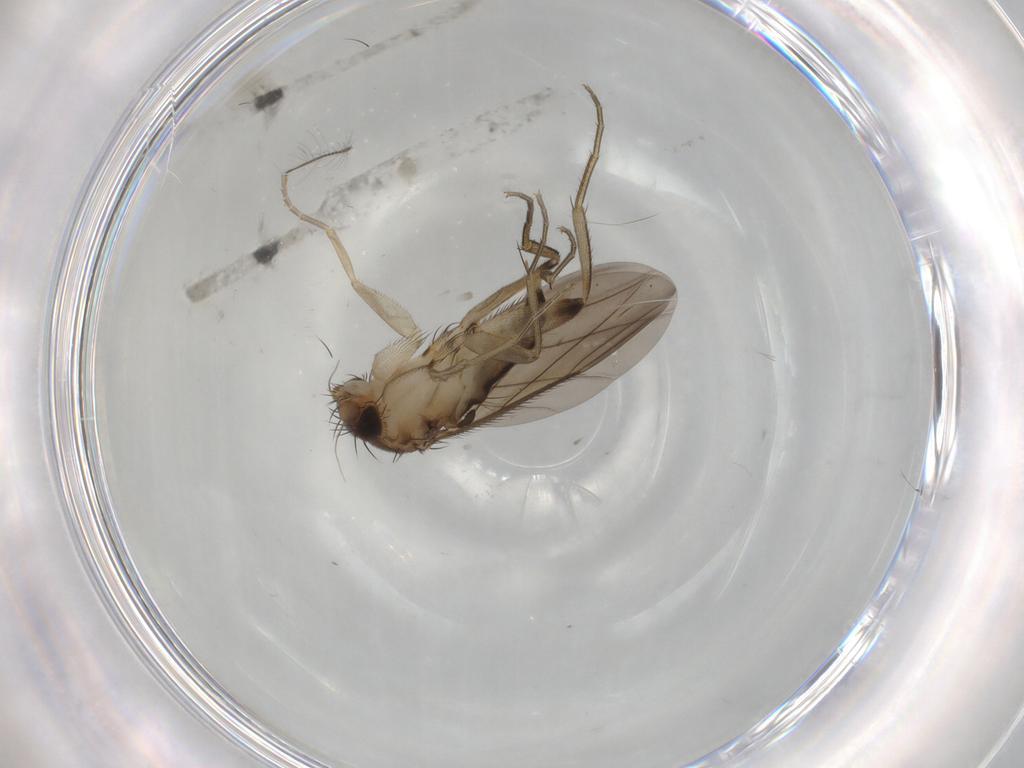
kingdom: Animalia
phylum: Arthropoda
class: Insecta
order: Diptera
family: Phoridae
